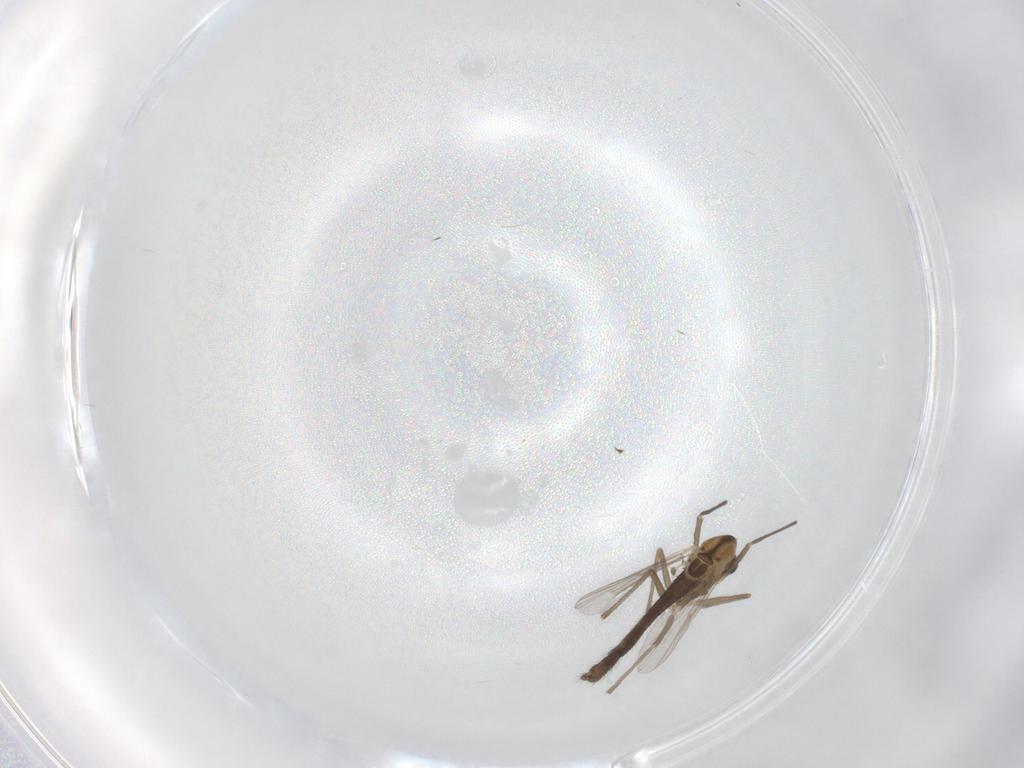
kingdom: Animalia
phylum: Arthropoda
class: Insecta
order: Diptera
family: Chironomidae
